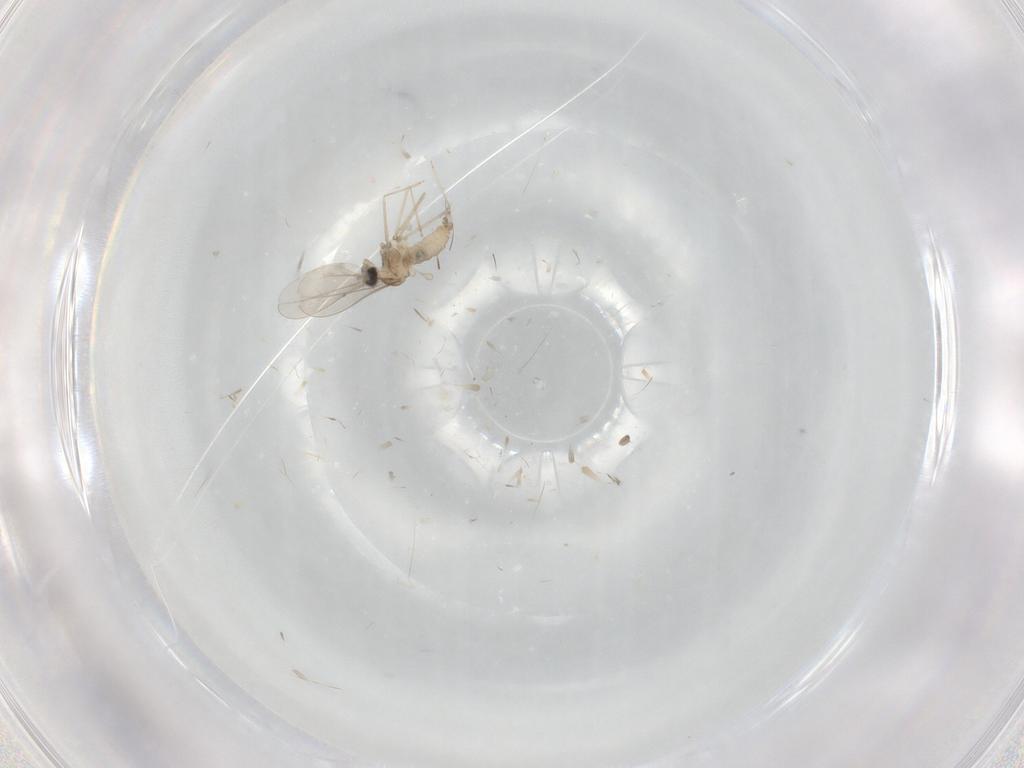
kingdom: Animalia
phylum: Arthropoda
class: Insecta
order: Diptera
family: Cecidomyiidae
